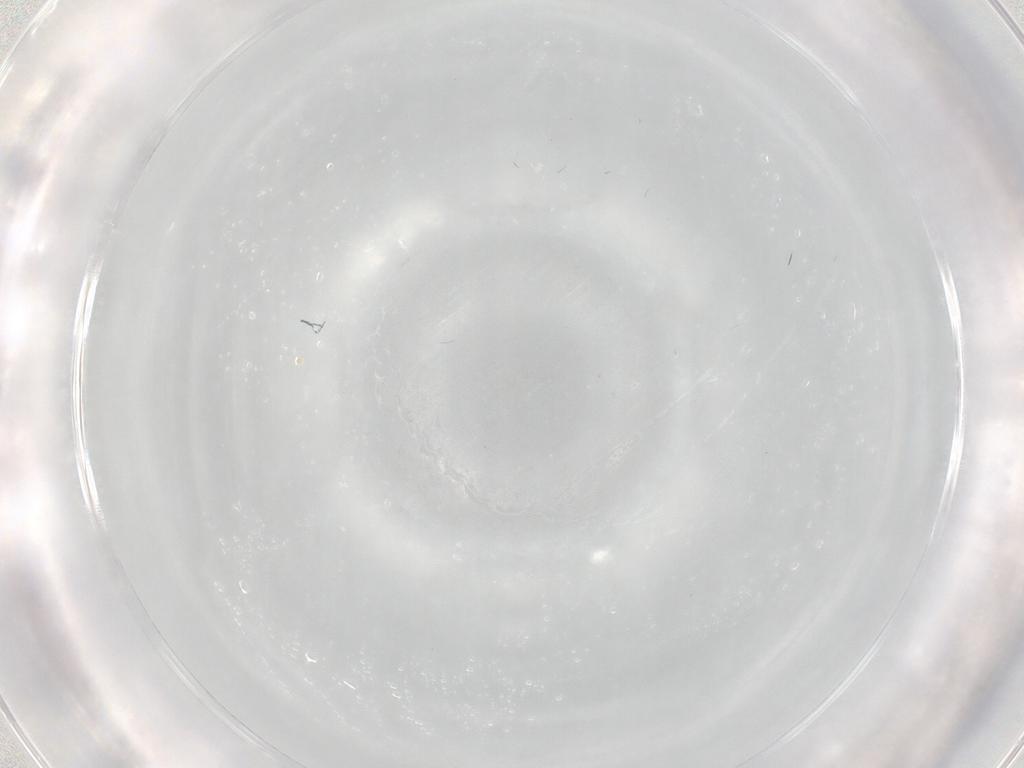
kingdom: Animalia
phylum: Arthropoda
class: Insecta
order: Diptera
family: Cecidomyiidae
